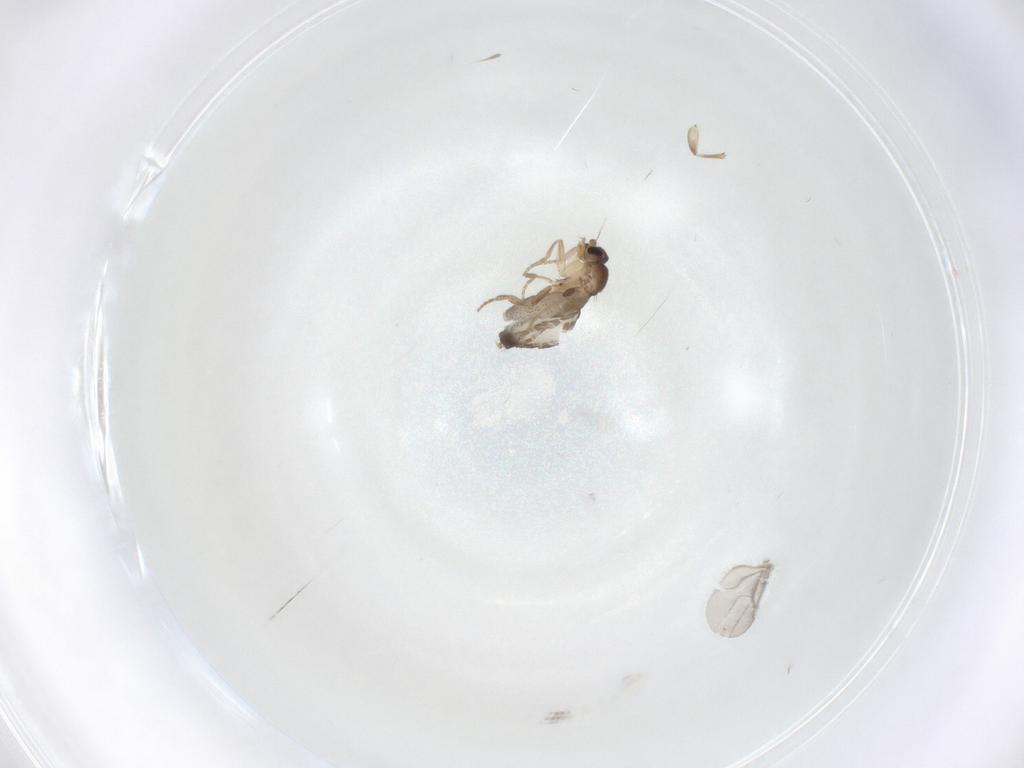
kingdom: Animalia
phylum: Arthropoda
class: Insecta
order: Diptera
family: Phoridae
